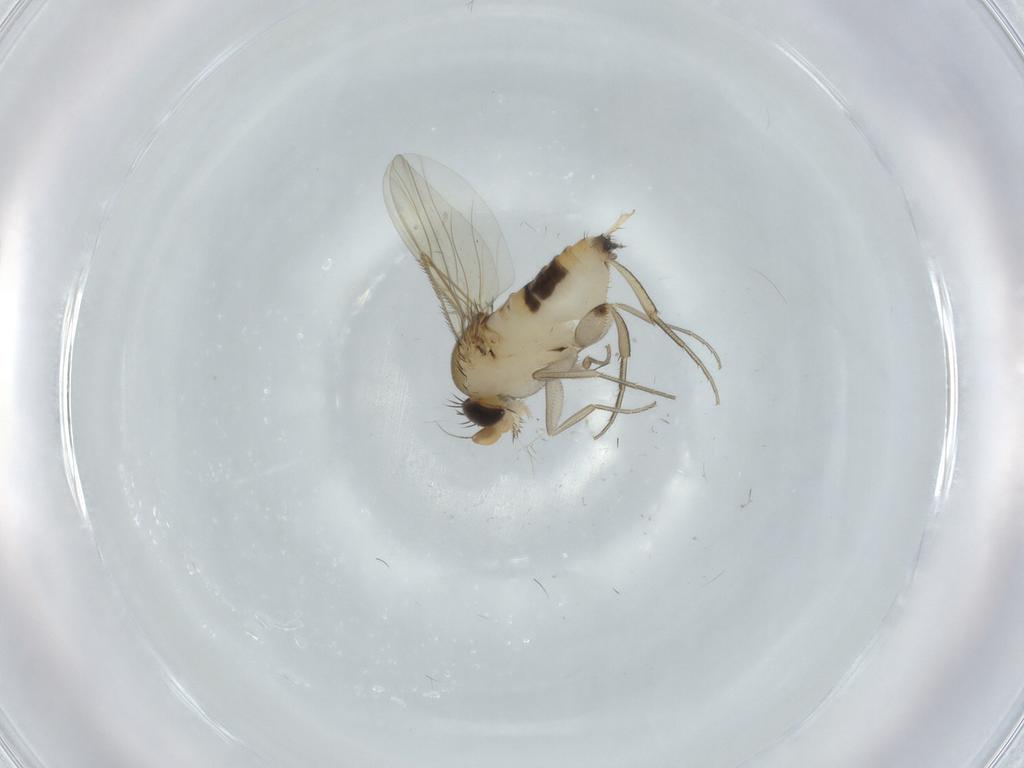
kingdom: Animalia
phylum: Arthropoda
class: Insecta
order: Diptera
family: Phoridae
